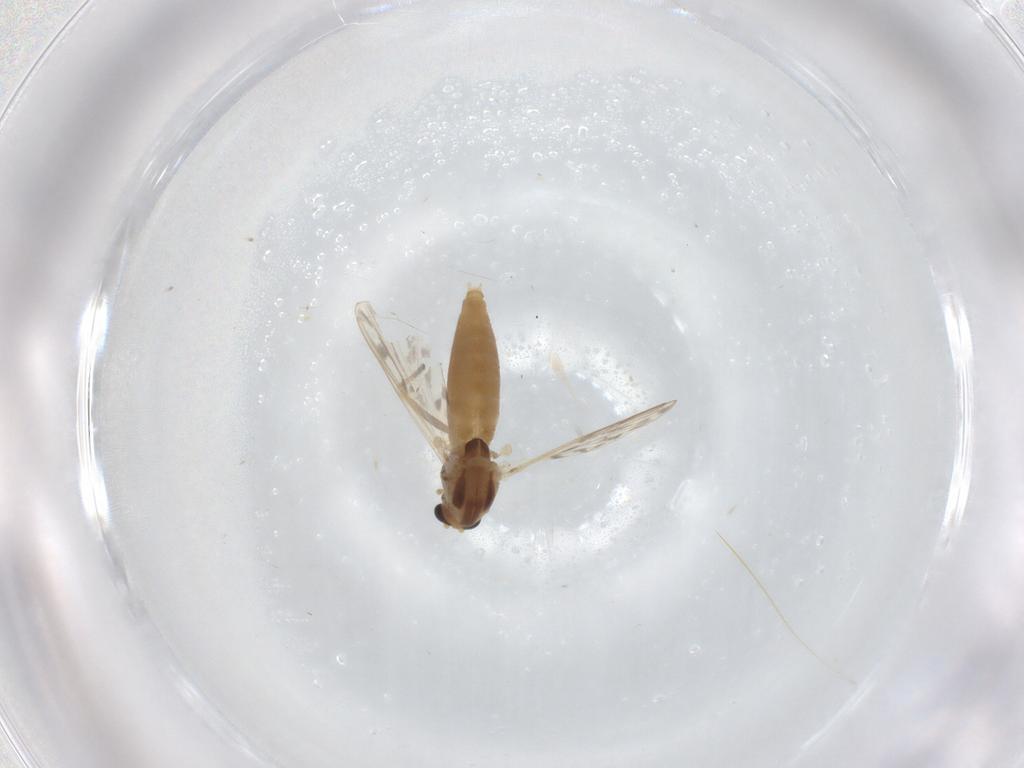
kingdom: Animalia
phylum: Arthropoda
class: Insecta
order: Diptera
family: Chironomidae
